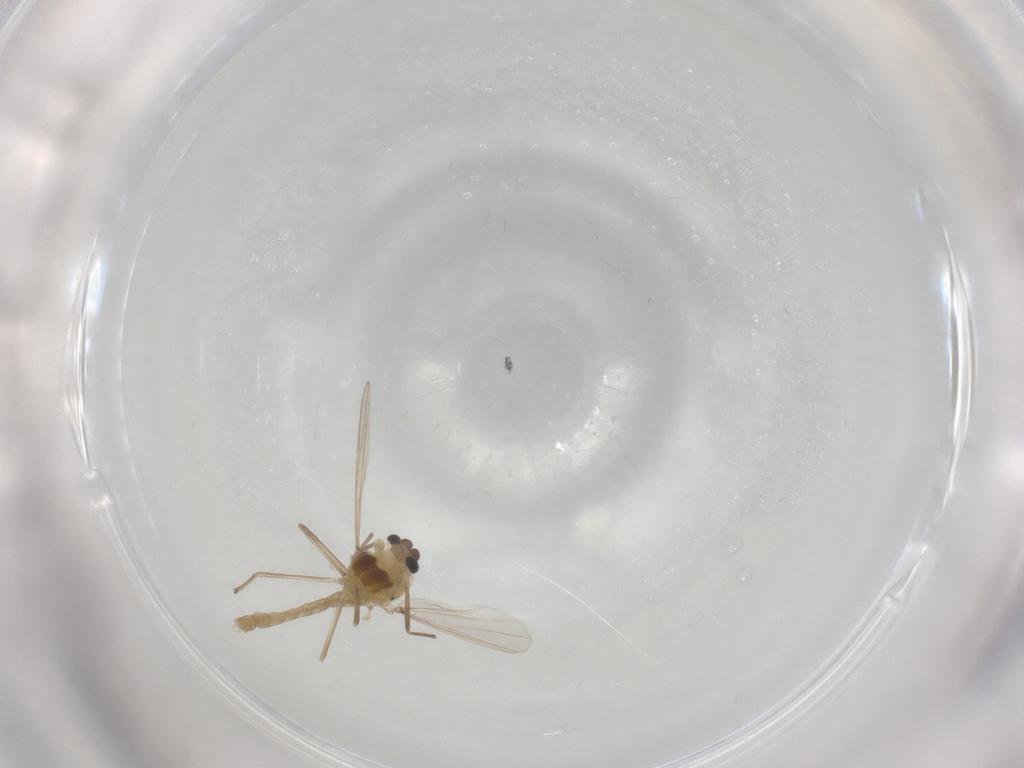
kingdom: Animalia
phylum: Arthropoda
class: Insecta
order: Diptera
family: Chironomidae
